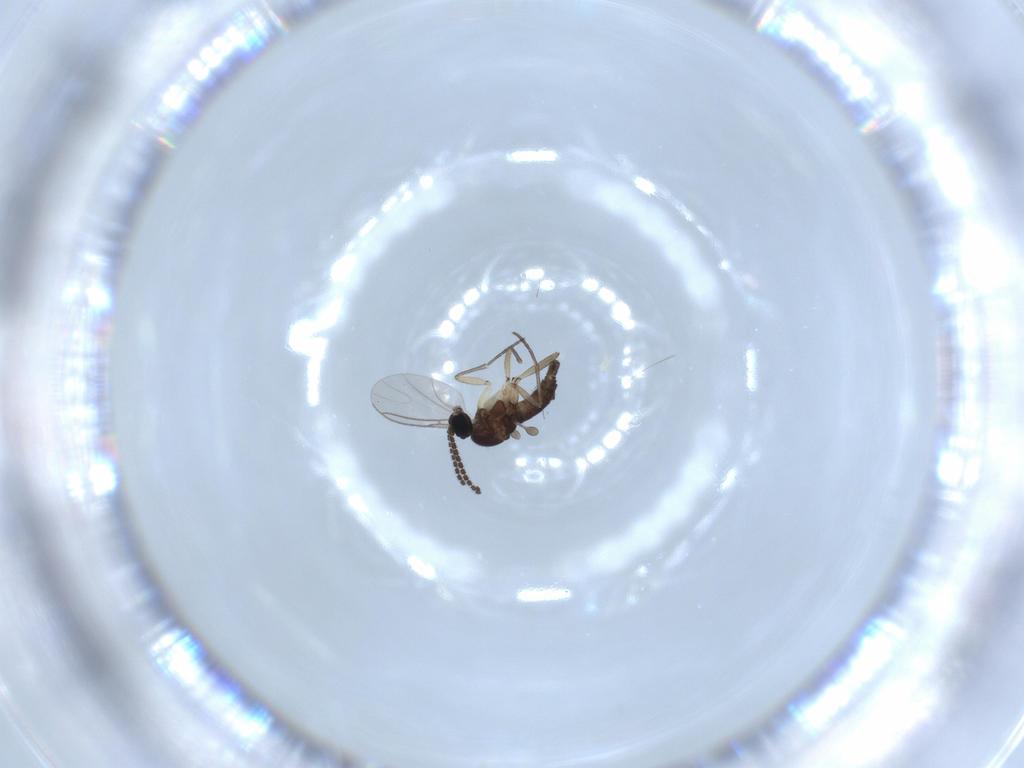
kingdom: Animalia
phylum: Arthropoda
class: Insecta
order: Diptera
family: Sciaridae
